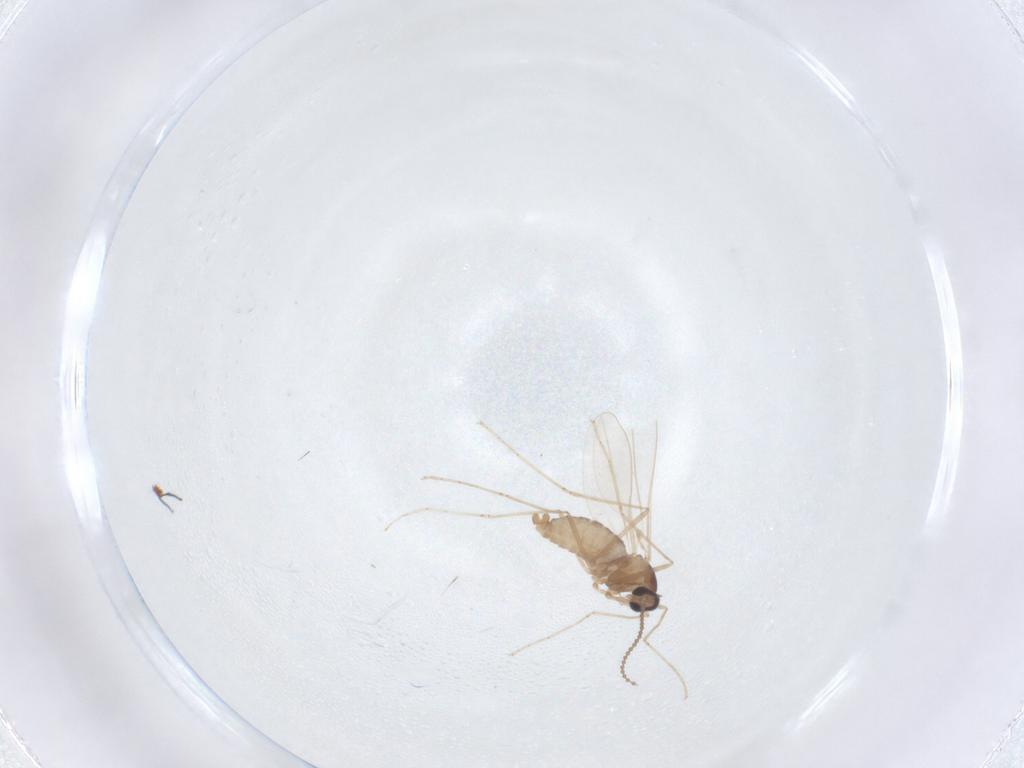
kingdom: Animalia
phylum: Arthropoda
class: Insecta
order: Diptera
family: Cecidomyiidae
